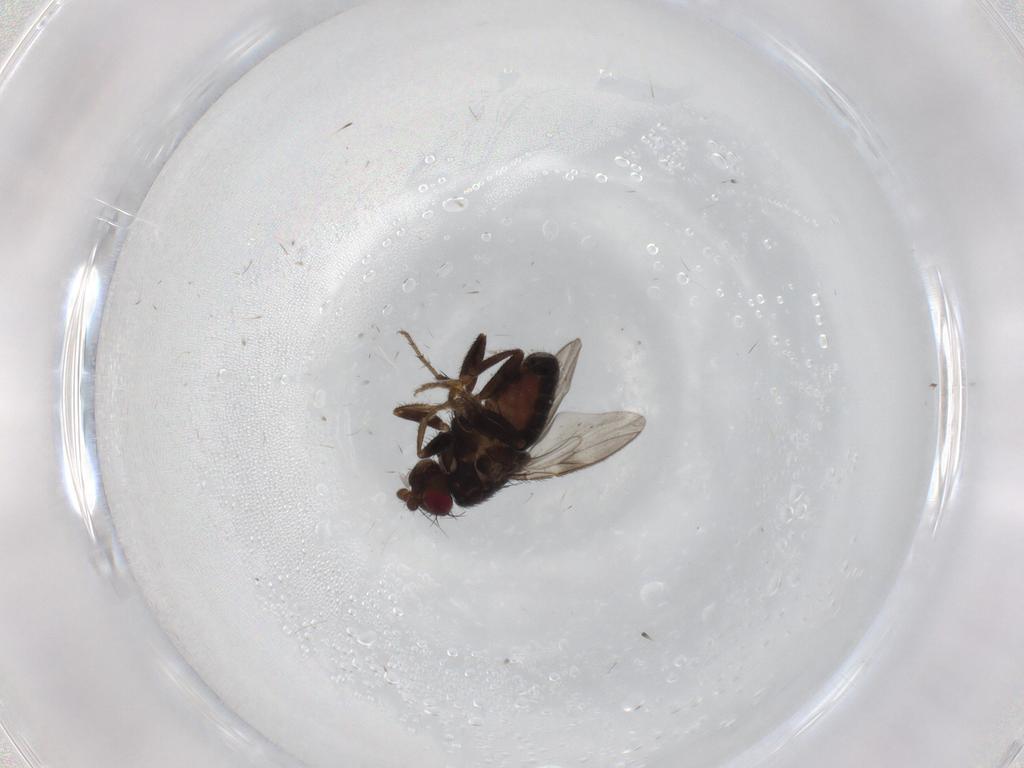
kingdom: Animalia
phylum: Arthropoda
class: Insecta
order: Diptera
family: Sphaeroceridae
